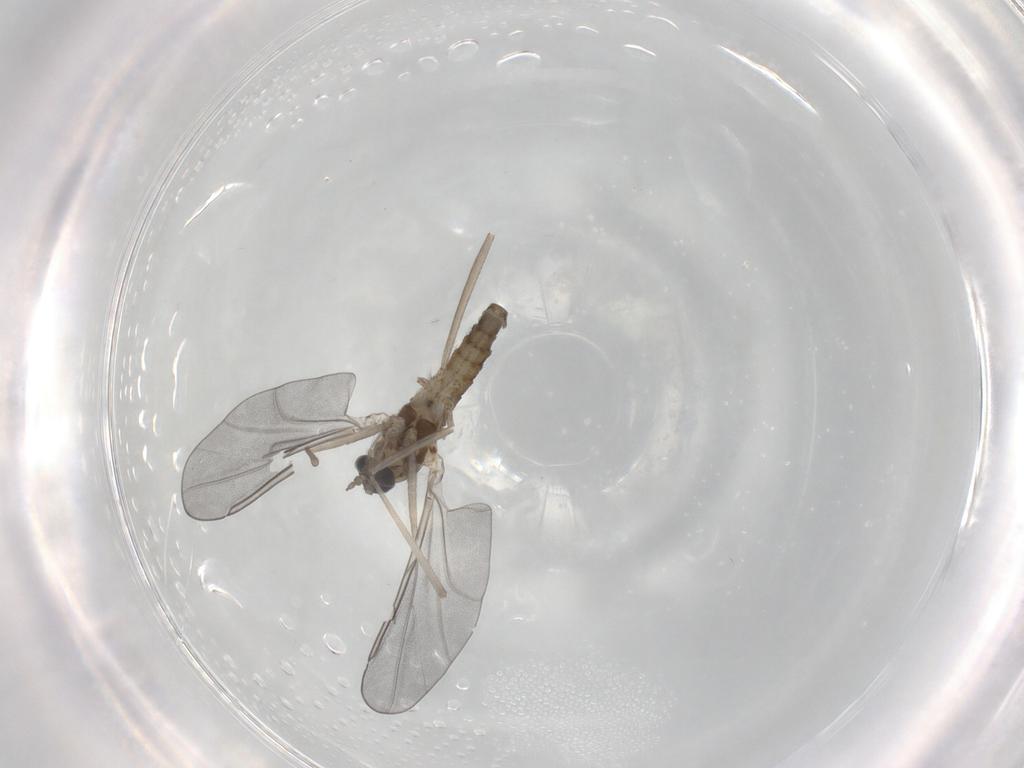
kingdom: Animalia
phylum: Arthropoda
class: Insecta
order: Diptera
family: Cecidomyiidae
